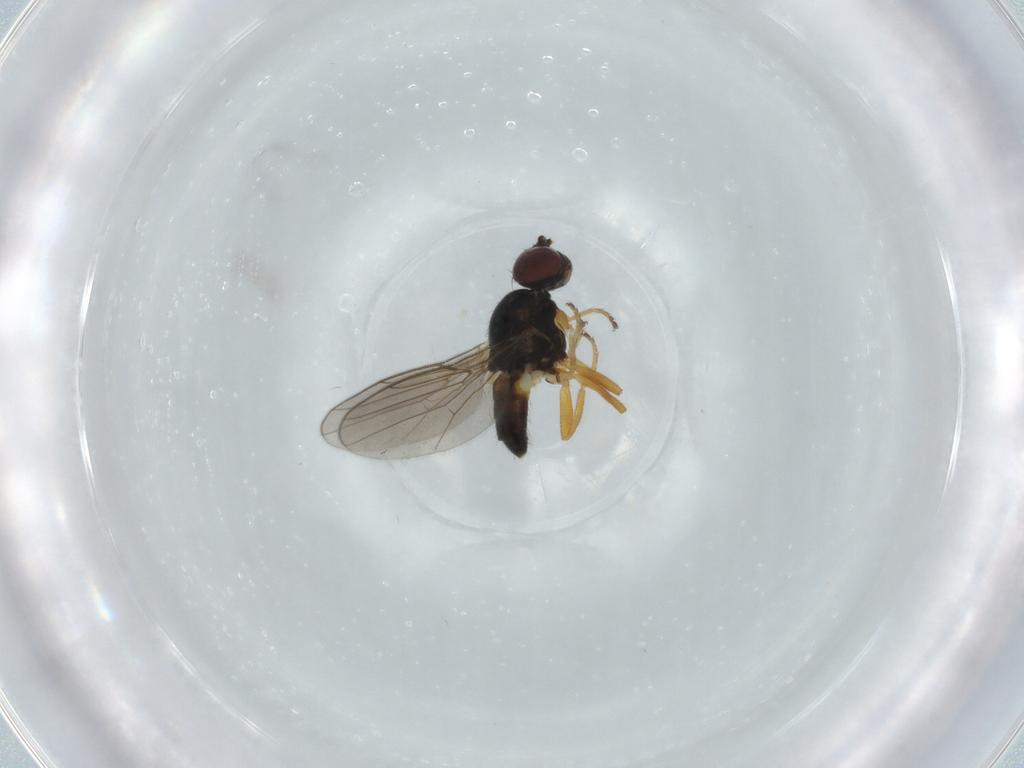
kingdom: Animalia
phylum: Arthropoda
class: Insecta
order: Diptera
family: Chloropidae
